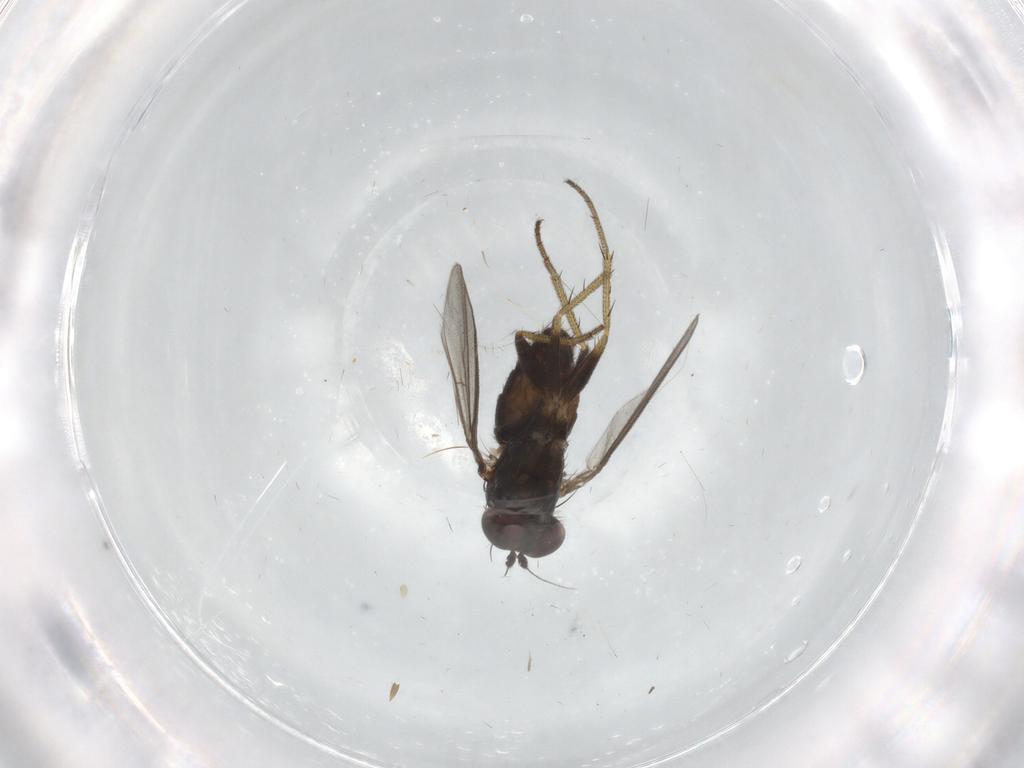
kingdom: Animalia
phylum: Arthropoda
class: Insecta
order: Diptera
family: Dolichopodidae
